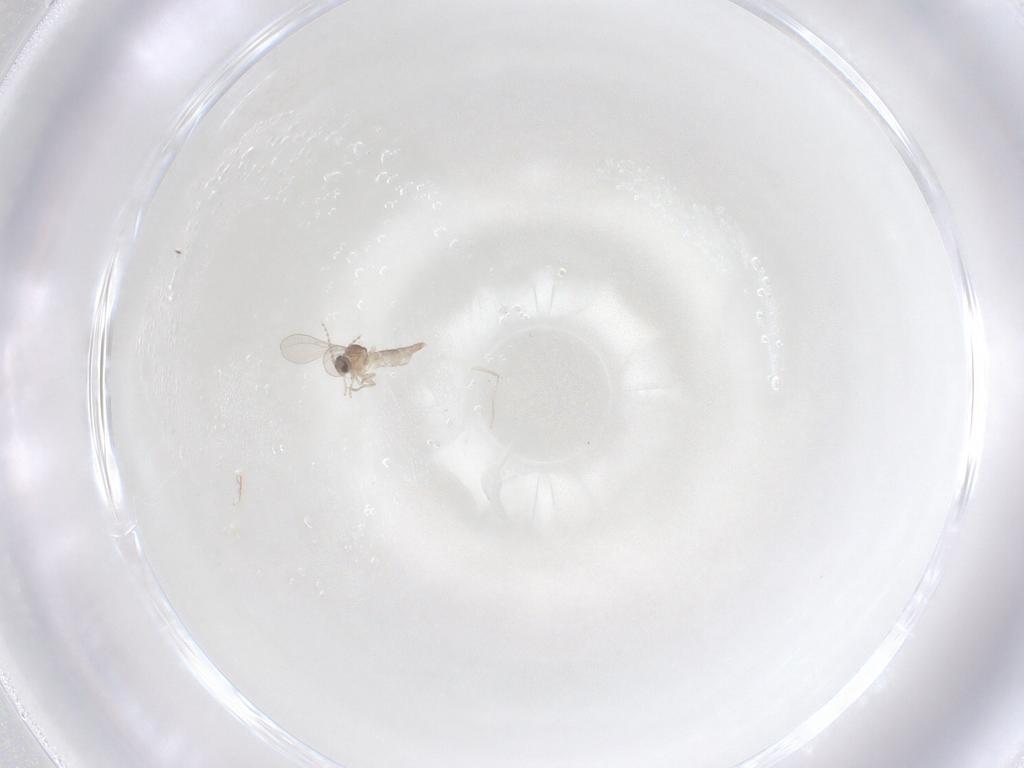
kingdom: Animalia
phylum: Arthropoda
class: Insecta
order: Diptera
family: Cecidomyiidae
